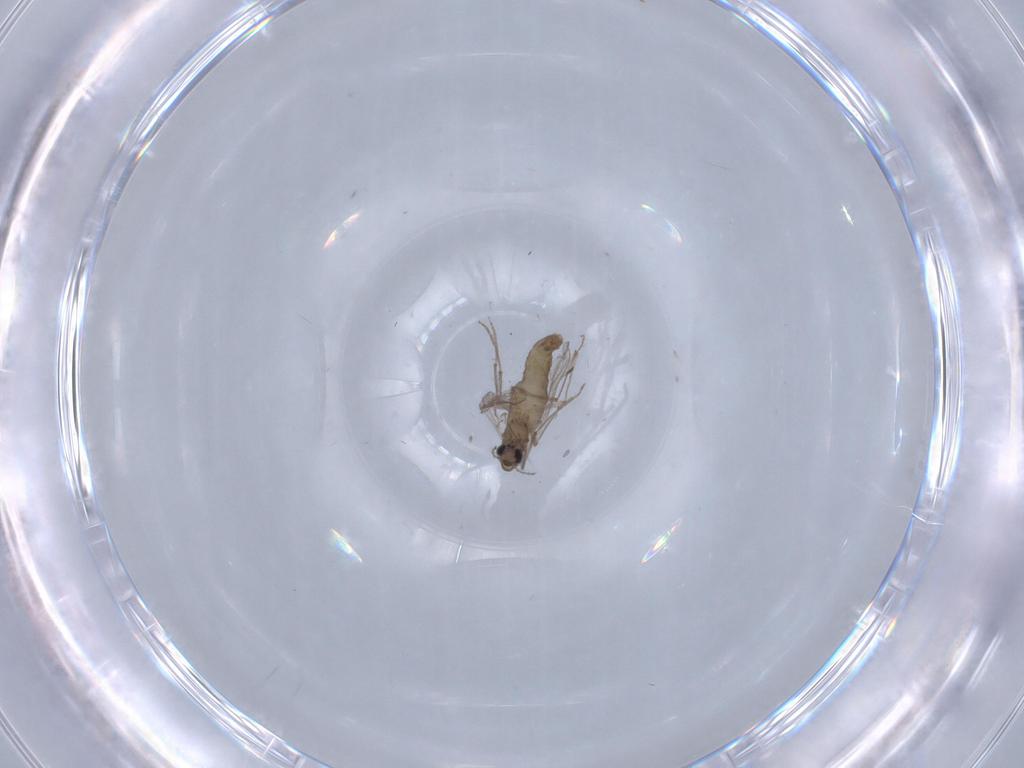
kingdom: Animalia
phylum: Arthropoda
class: Insecta
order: Diptera
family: Chironomidae
